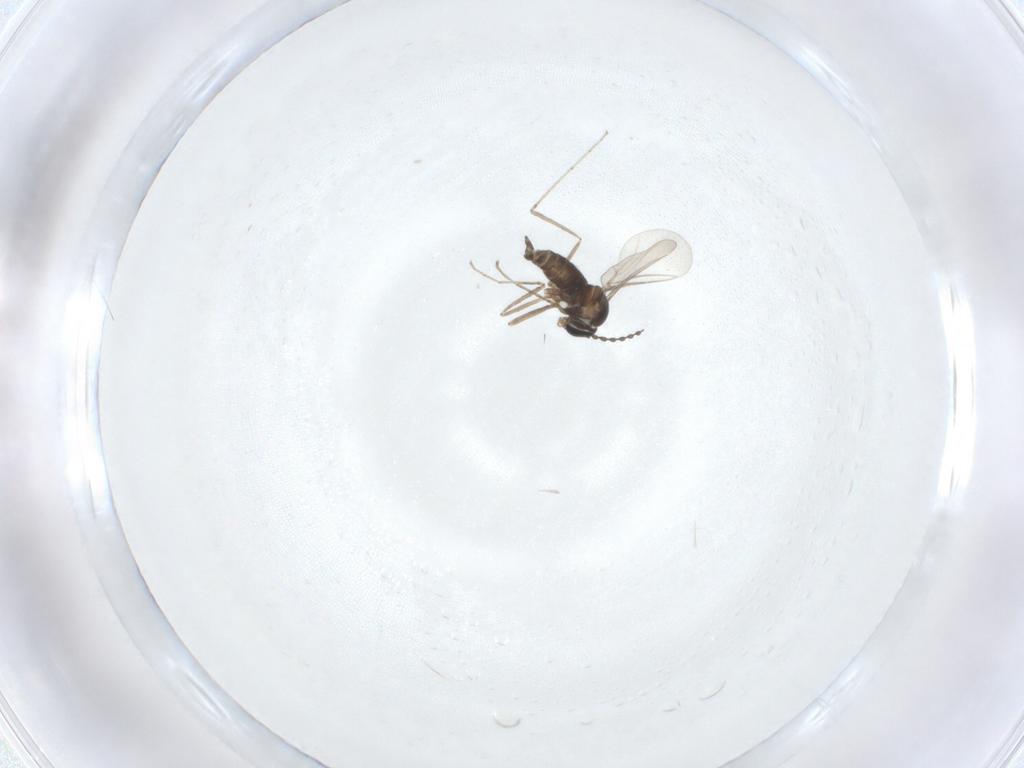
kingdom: Animalia
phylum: Arthropoda
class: Insecta
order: Diptera
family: Cecidomyiidae
